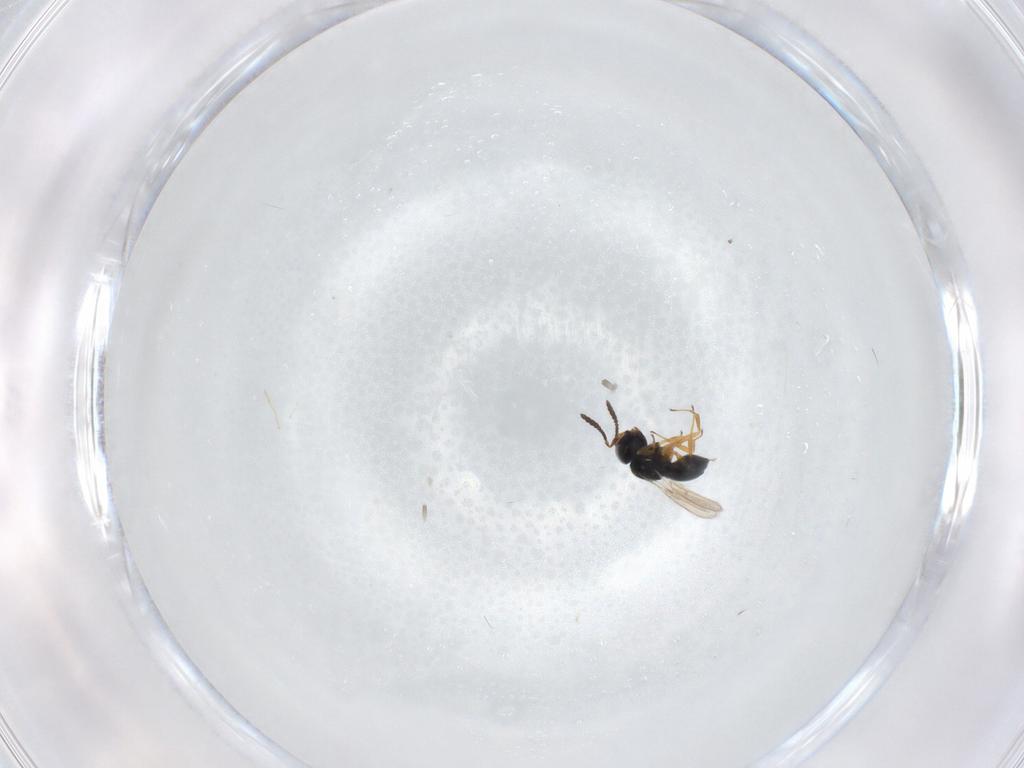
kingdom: Animalia
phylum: Arthropoda
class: Insecta
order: Hymenoptera
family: Scelionidae
